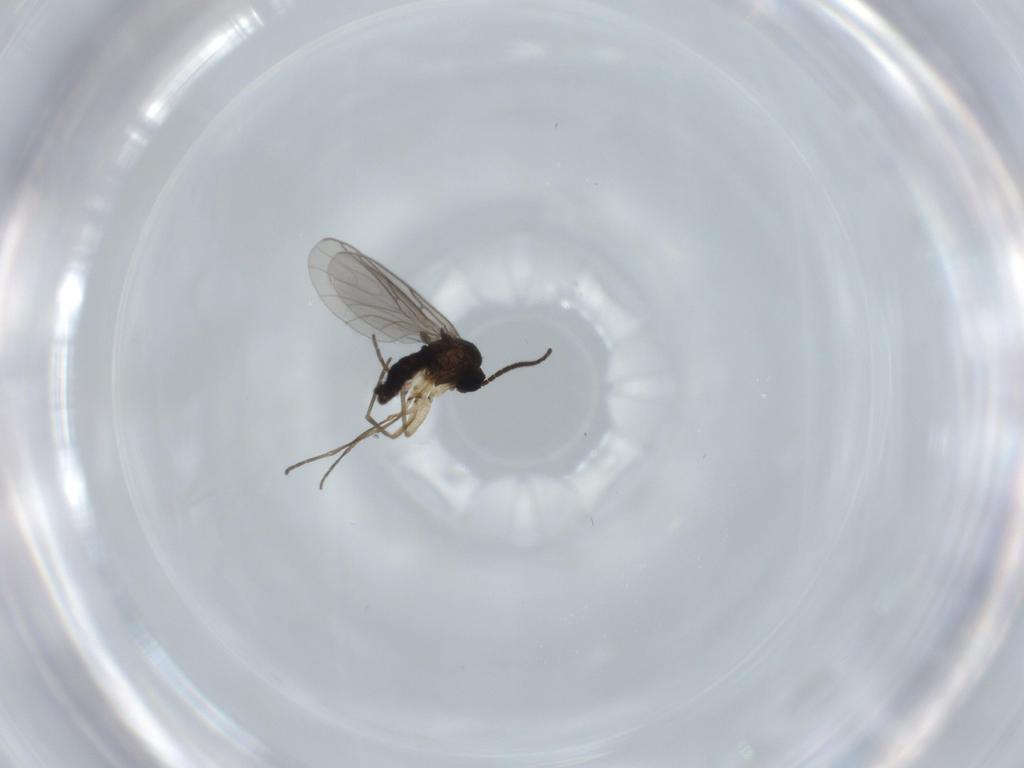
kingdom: Animalia
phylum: Arthropoda
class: Insecta
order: Diptera
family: Sciaridae
